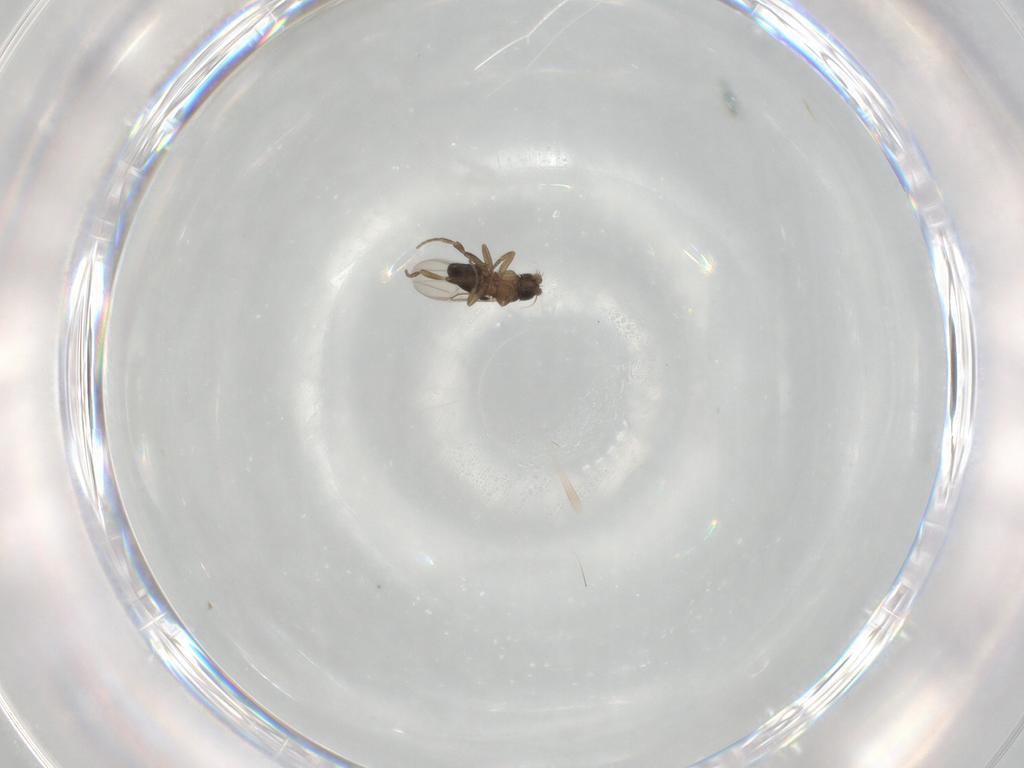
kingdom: Animalia
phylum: Arthropoda
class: Insecta
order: Diptera
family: Phoridae
